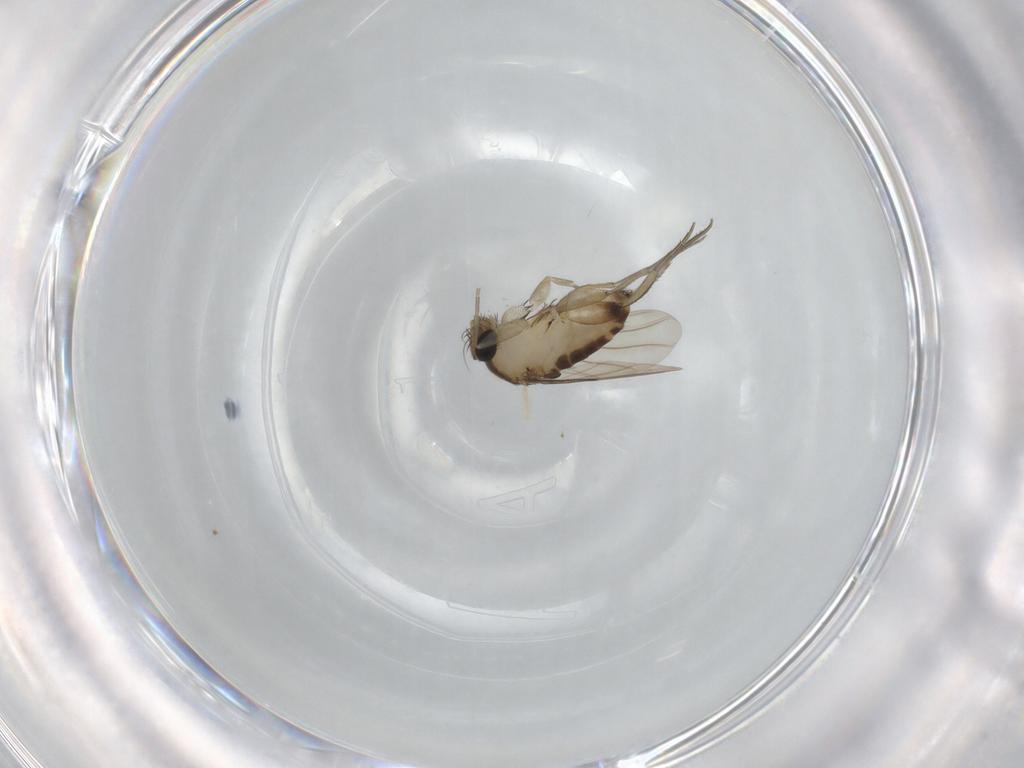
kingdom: Animalia
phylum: Arthropoda
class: Insecta
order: Diptera
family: Phoridae
